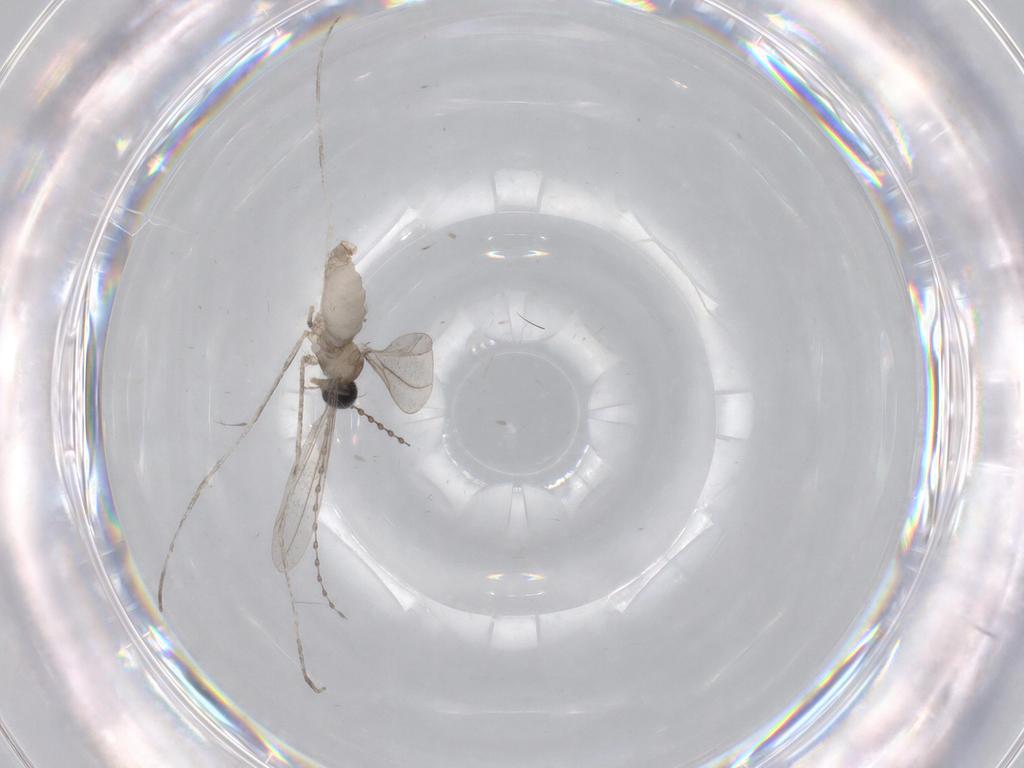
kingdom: Animalia
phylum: Arthropoda
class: Insecta
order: Diptera
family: Cecidomyiidae
